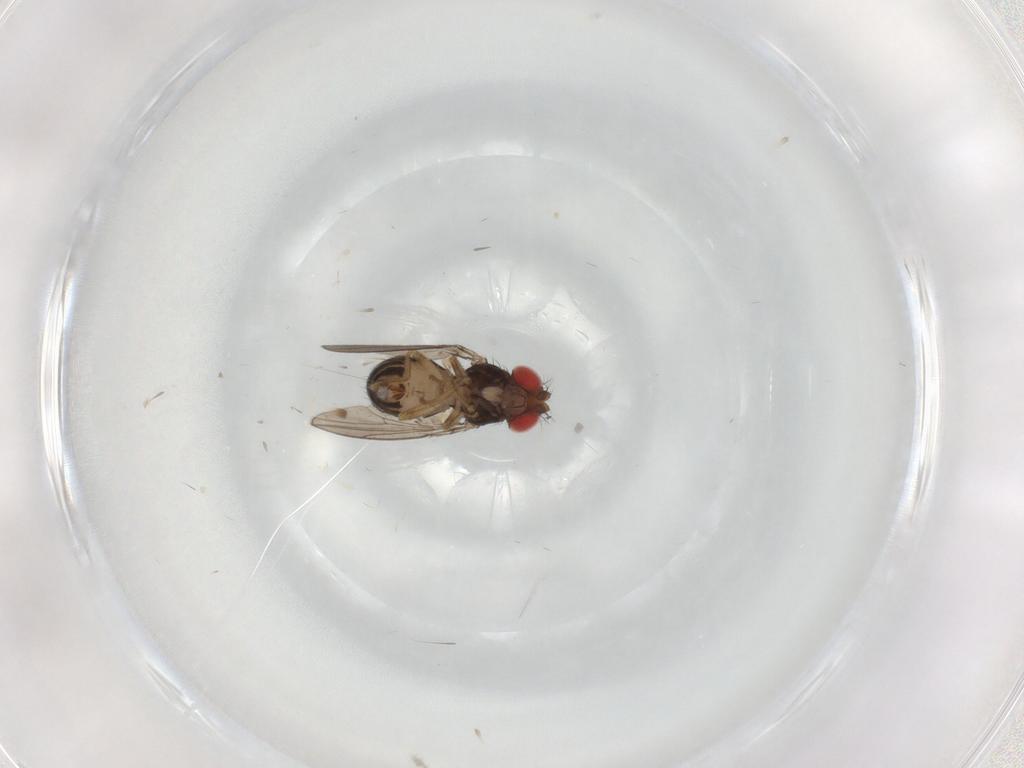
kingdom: Animalia
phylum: Arthropoda
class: Insecta
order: Diptera
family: Drosophilidae
